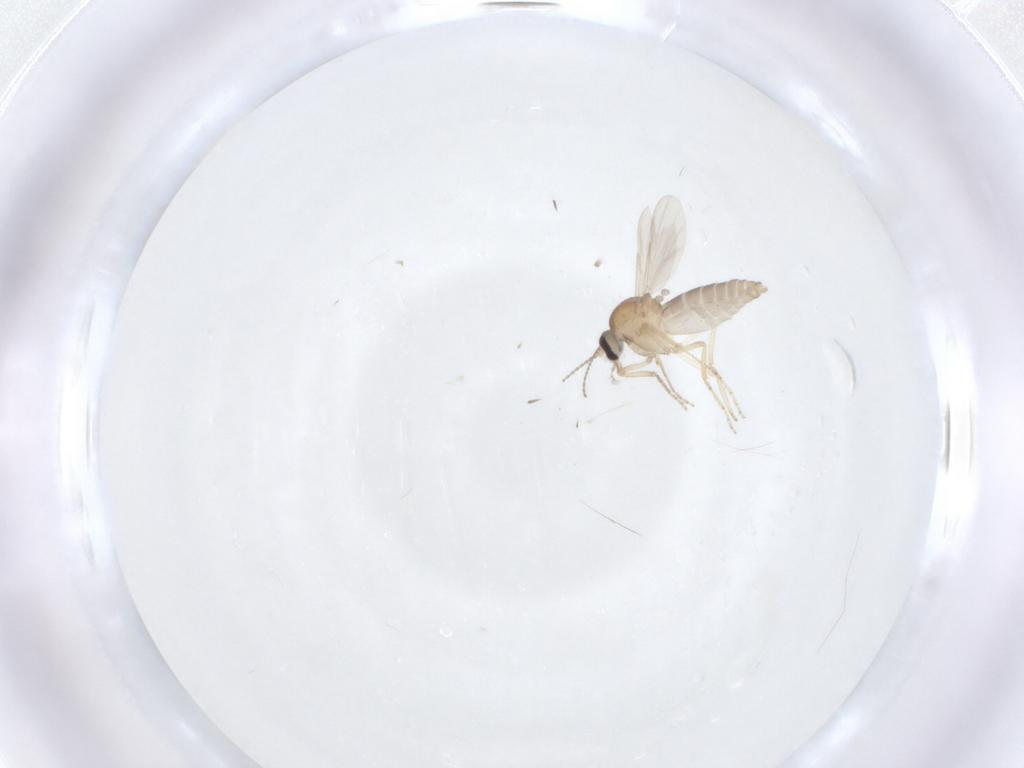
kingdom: Animalia
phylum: Arthropoda
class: Insecta
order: Diptera
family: Ceratopogonidae
